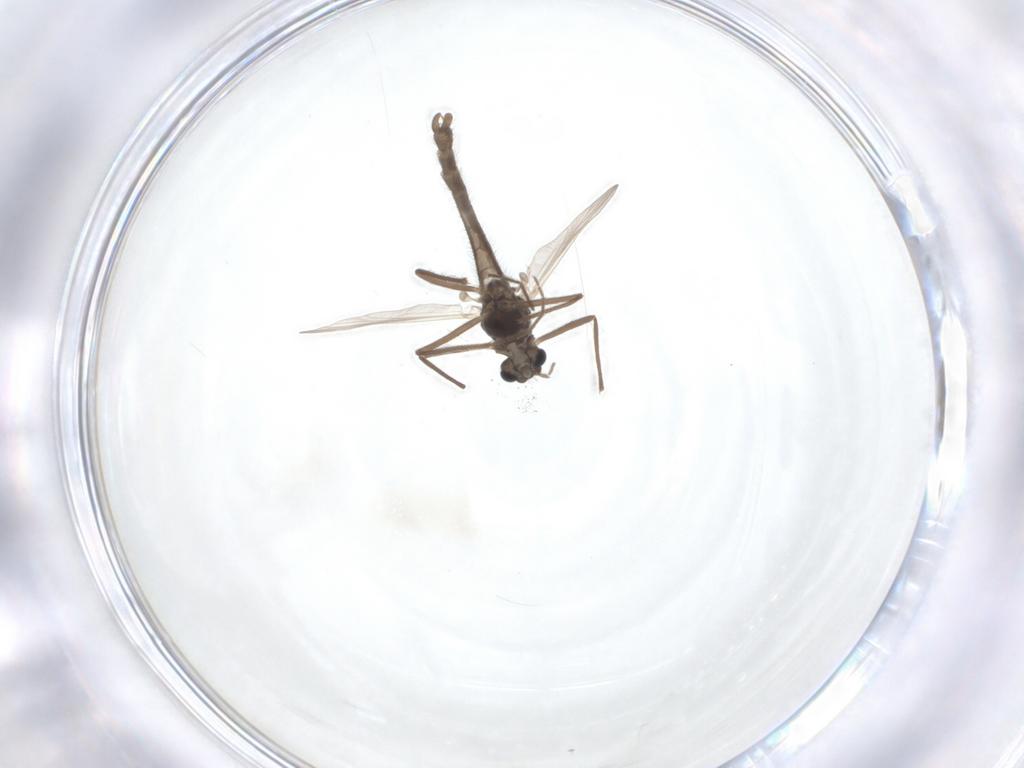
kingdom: Animalia
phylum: Arthropoda
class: Insecta
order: Diptera
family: Chironomidae
